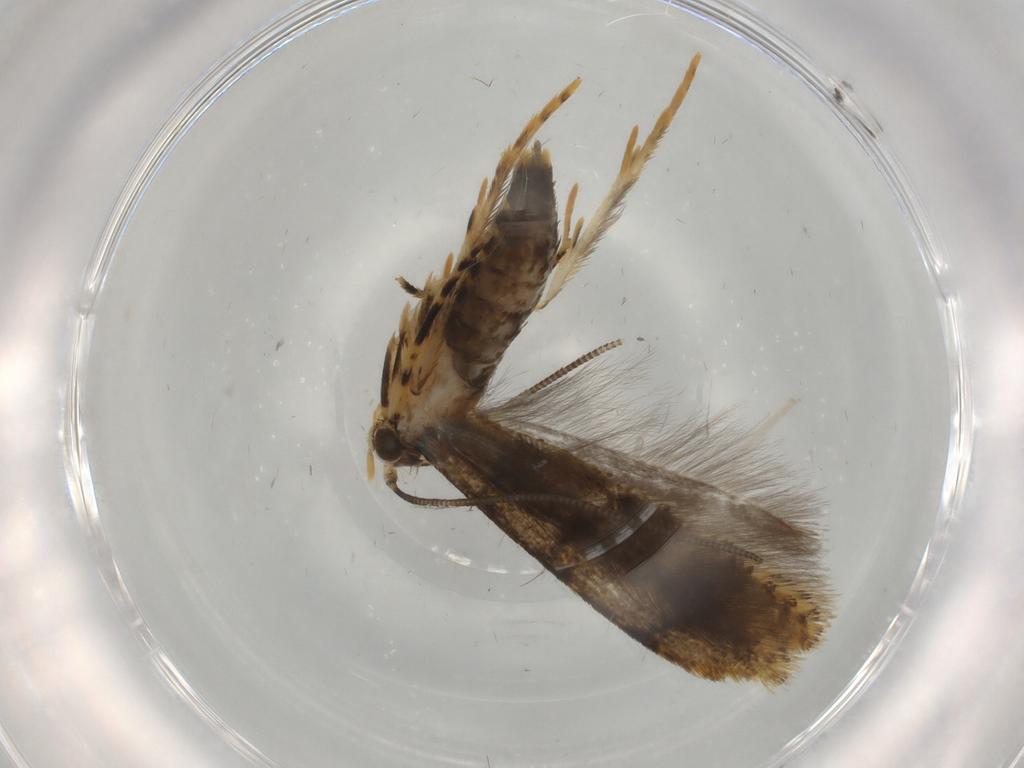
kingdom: Animalia
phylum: Arthropoda
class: Insecta
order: Lepidoptera
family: Tineidae
